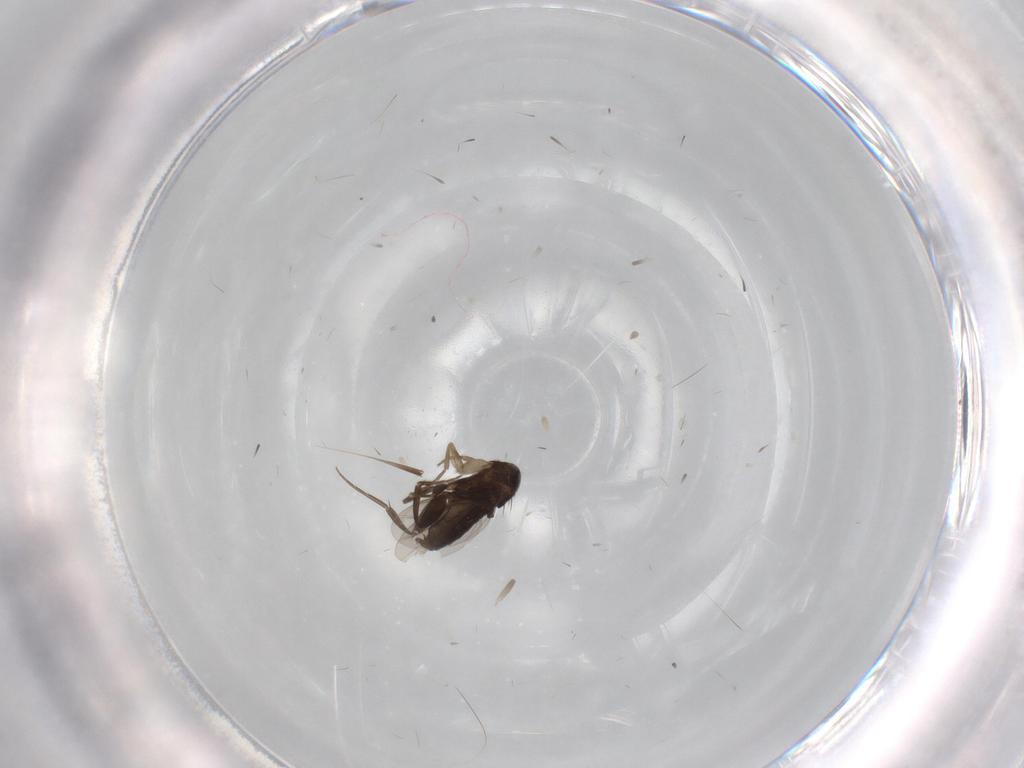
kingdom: Animalia
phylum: Arthropoda
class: Insecta
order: Diptera
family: Phoridae
